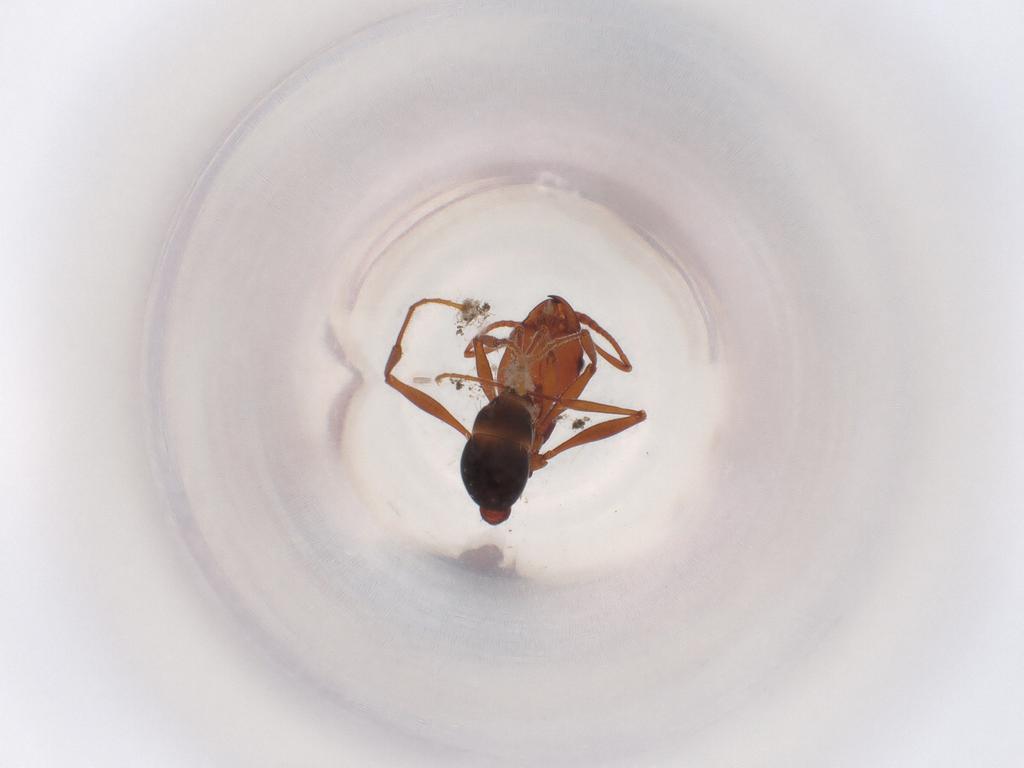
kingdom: Animalia
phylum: Arthropoda
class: Insecta
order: Hymenoptera
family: Formicidae
